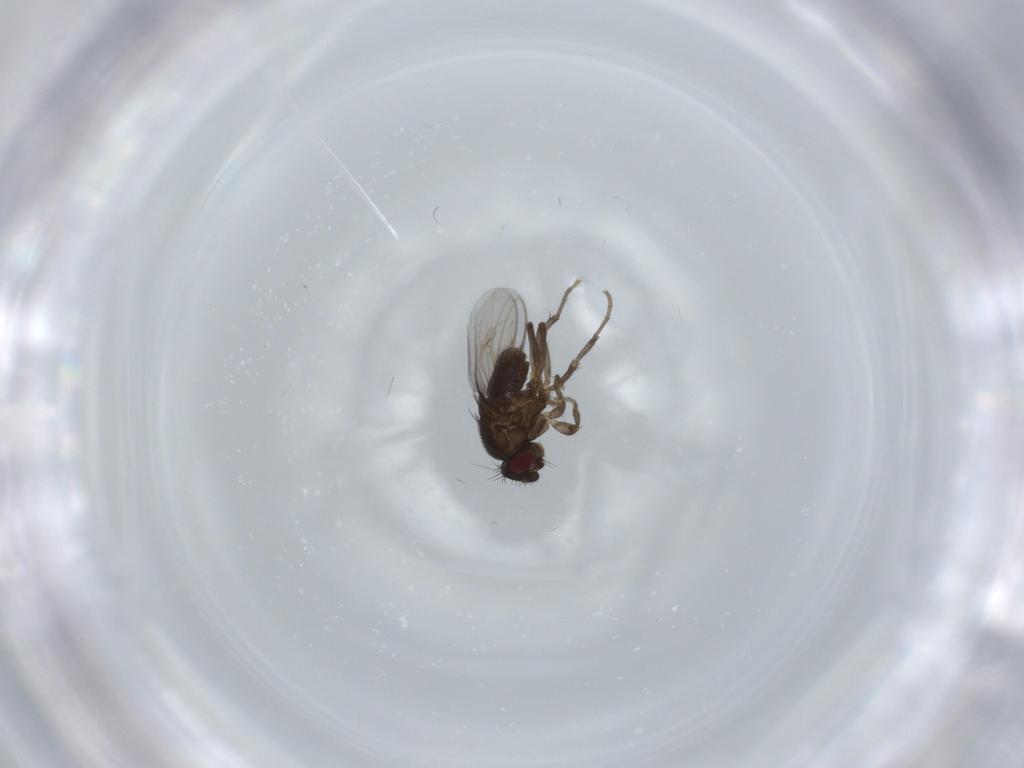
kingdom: Animalia
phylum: Arthropoda
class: Insecta
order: Diptera
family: Sphaeroceridae
